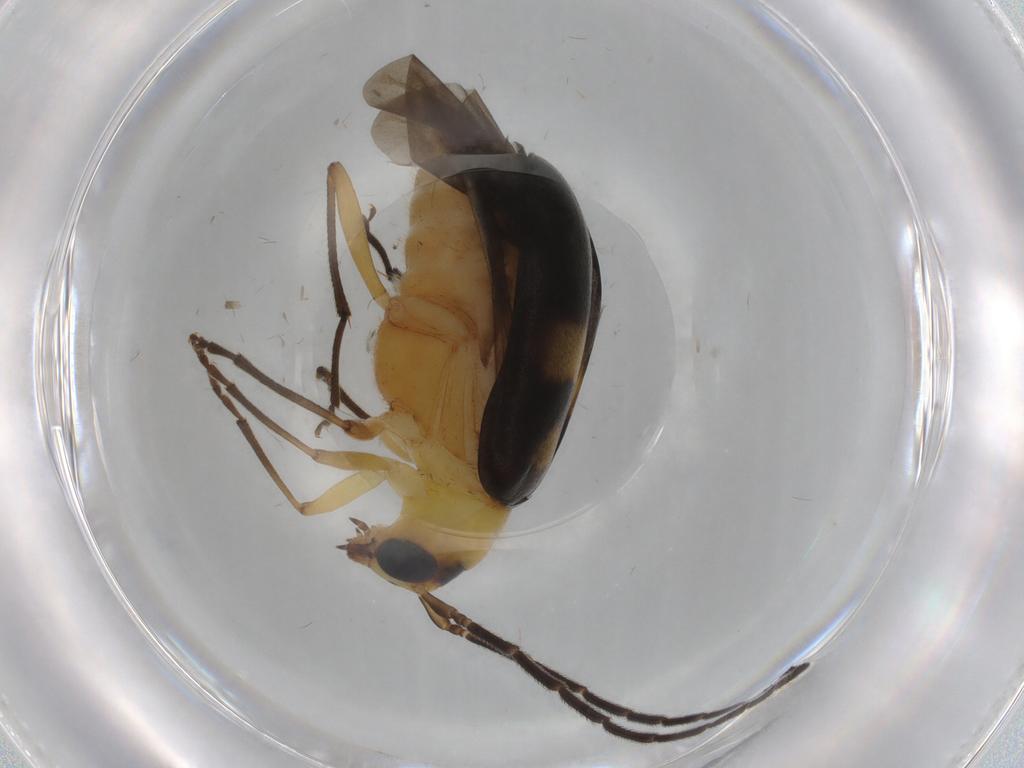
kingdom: Animalia
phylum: Arthropoda
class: Insecta
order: Coleoptera
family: Chrysomelidae
